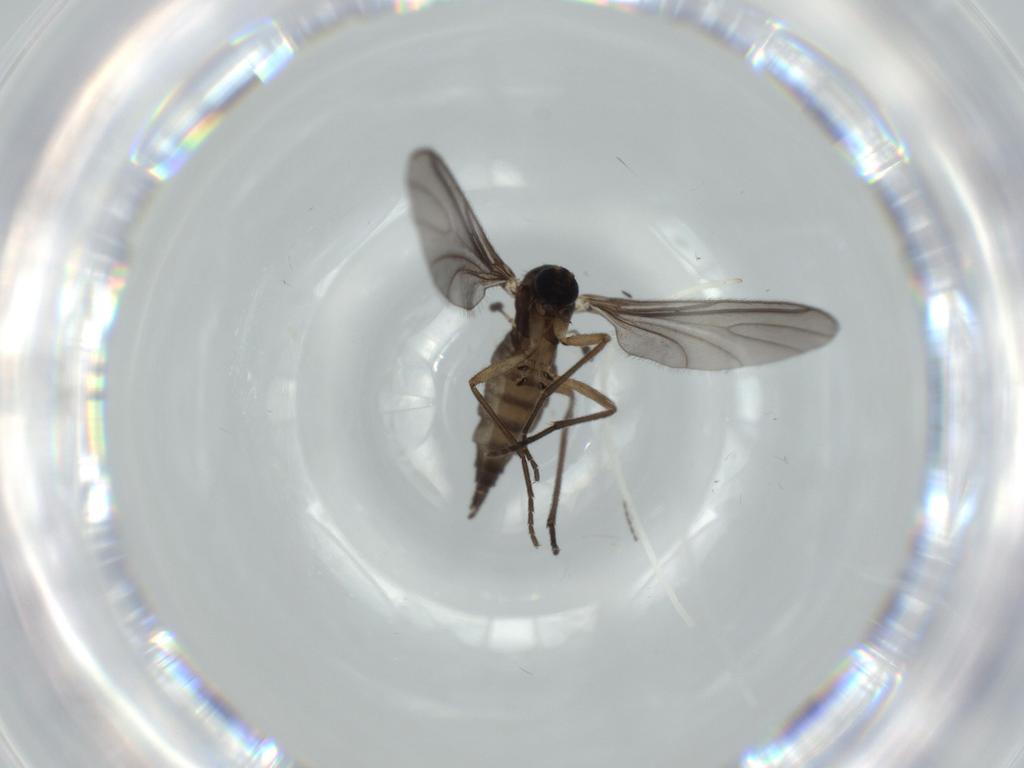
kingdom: Animalia
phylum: Arthropoda
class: Insecta
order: Diptera
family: Sciaridae
